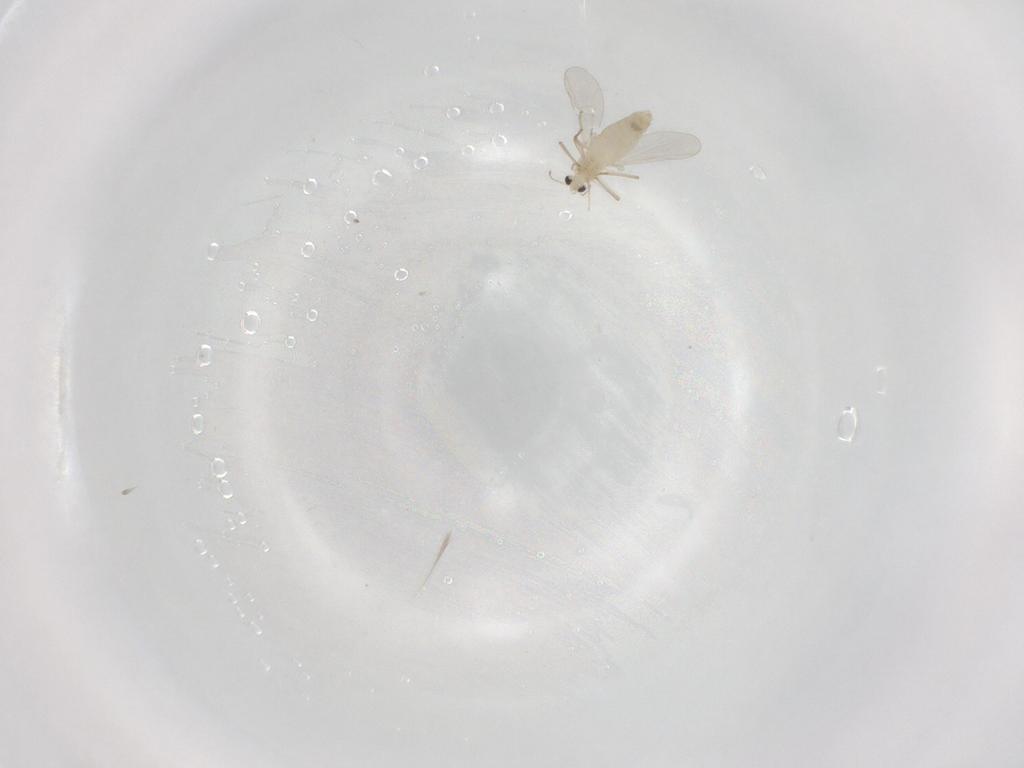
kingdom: Animalia
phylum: Arthropoda
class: Insecta
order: Diptera
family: Chironomidae
